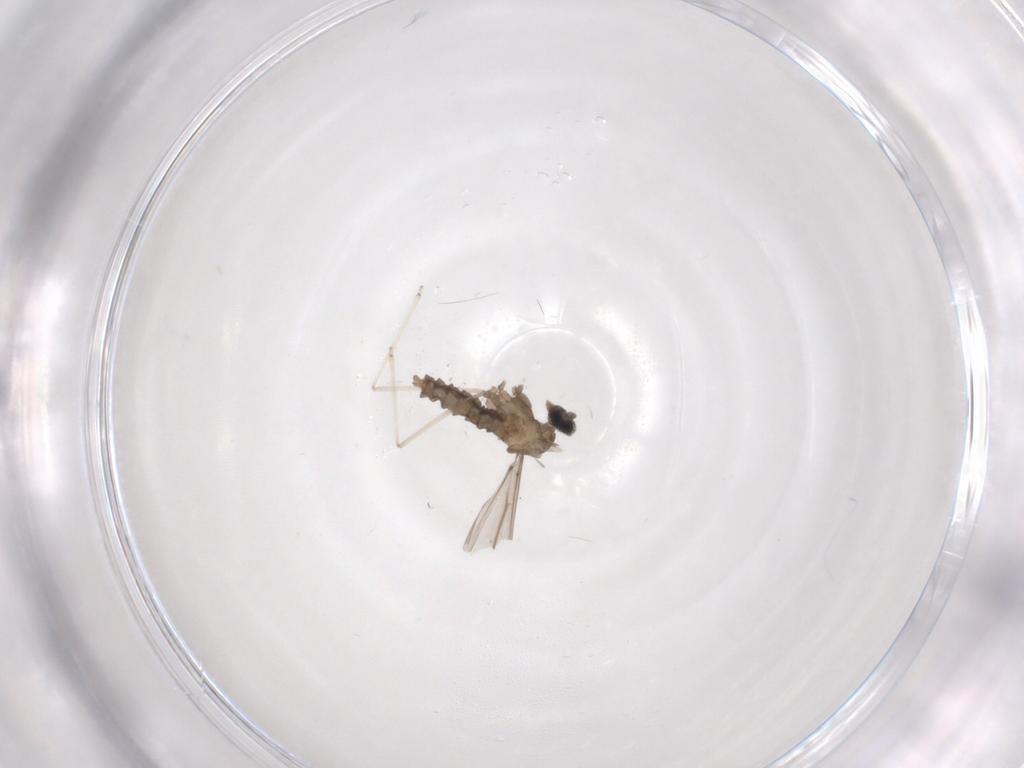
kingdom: Animalia
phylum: Arthropoda
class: Insecta
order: Diptera
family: Cecidomyiidae
